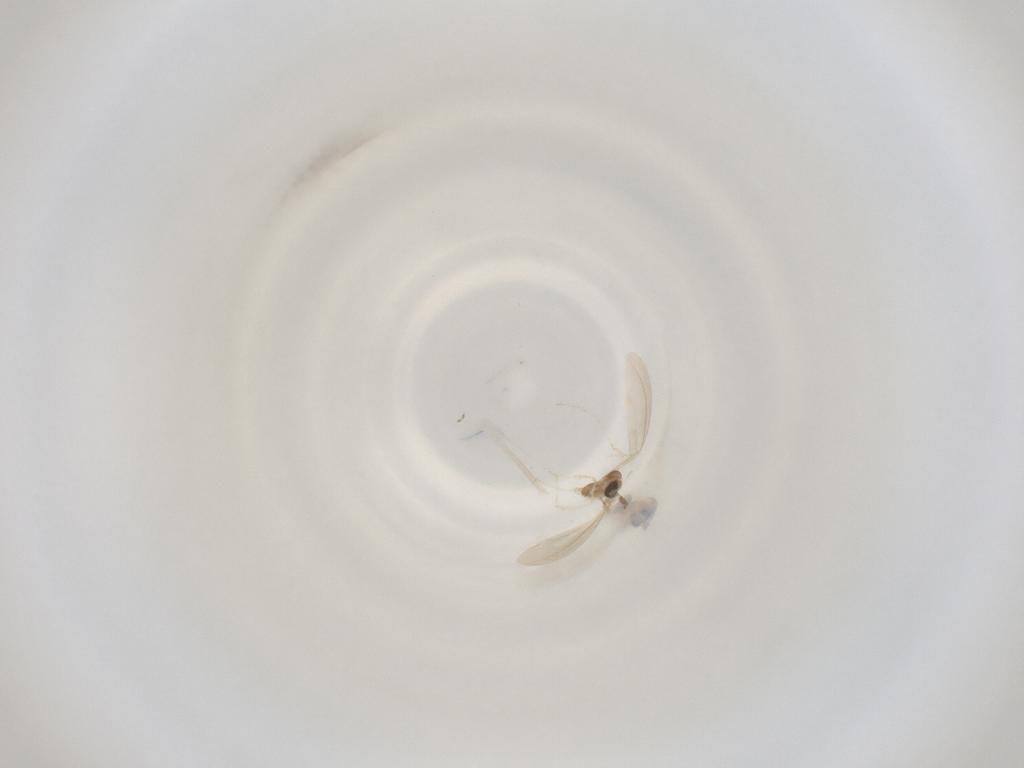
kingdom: Animalia
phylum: Arthropoda
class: Insecta
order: Diptera
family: Cecidomyiidae
